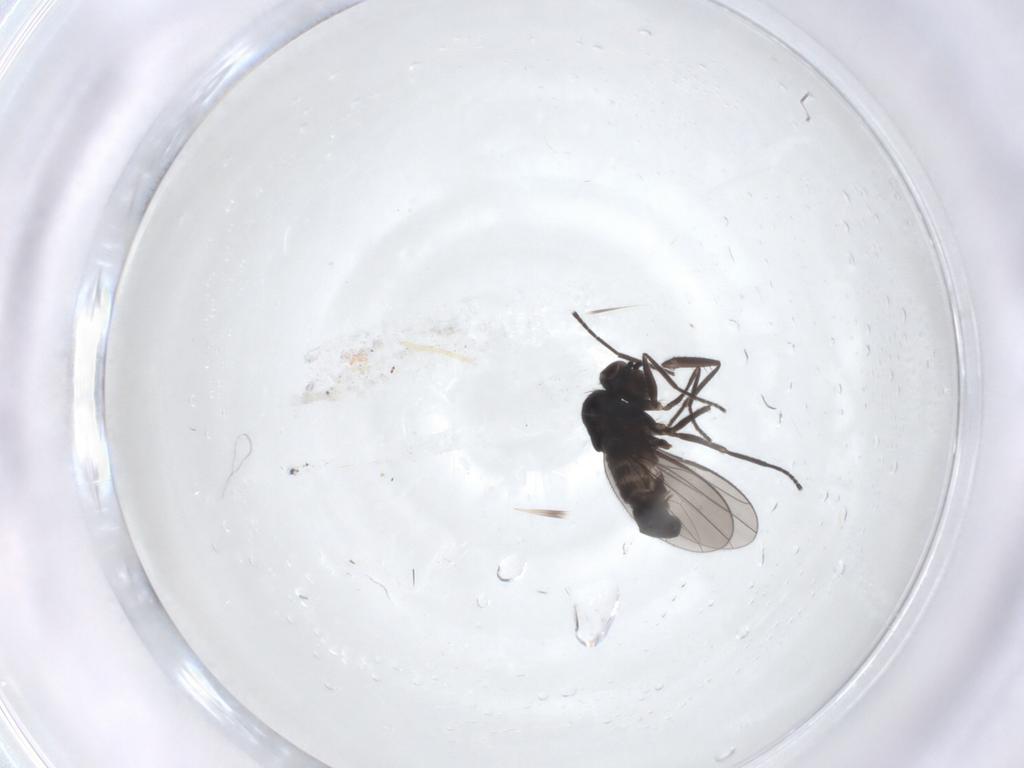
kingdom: Animalia
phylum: Arthropoda
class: Insecta
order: Diptera
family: Dolichopodidae
